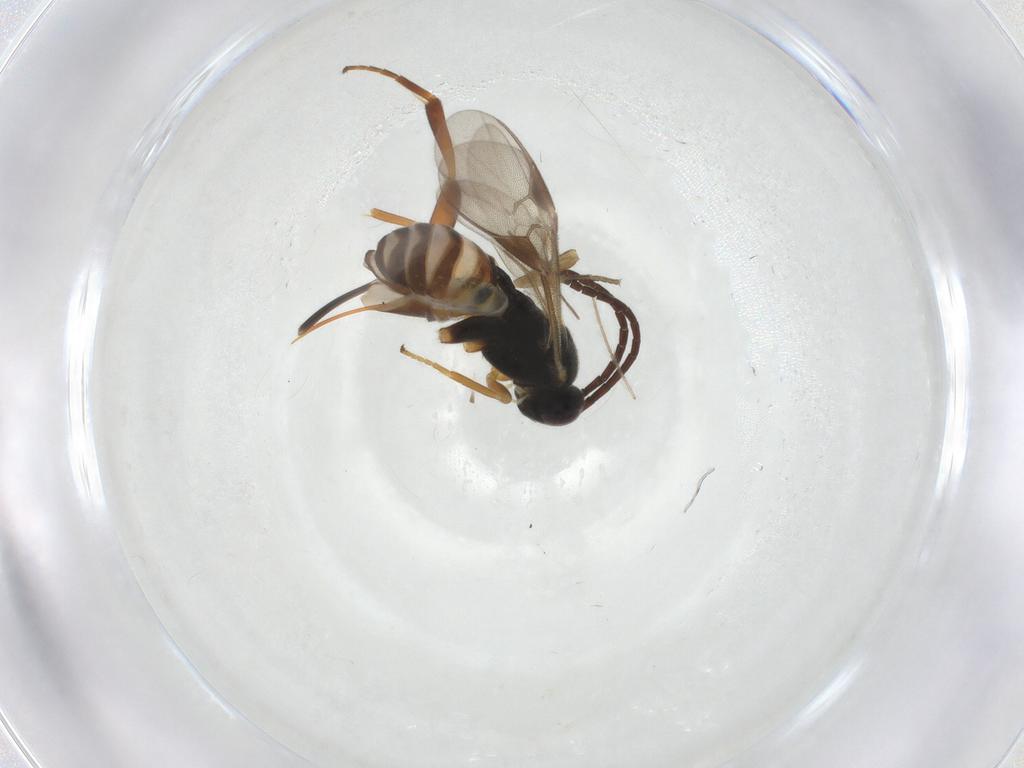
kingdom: Animalia
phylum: Arthropoda
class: Insecta
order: Hymenoptera
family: Braconidae
